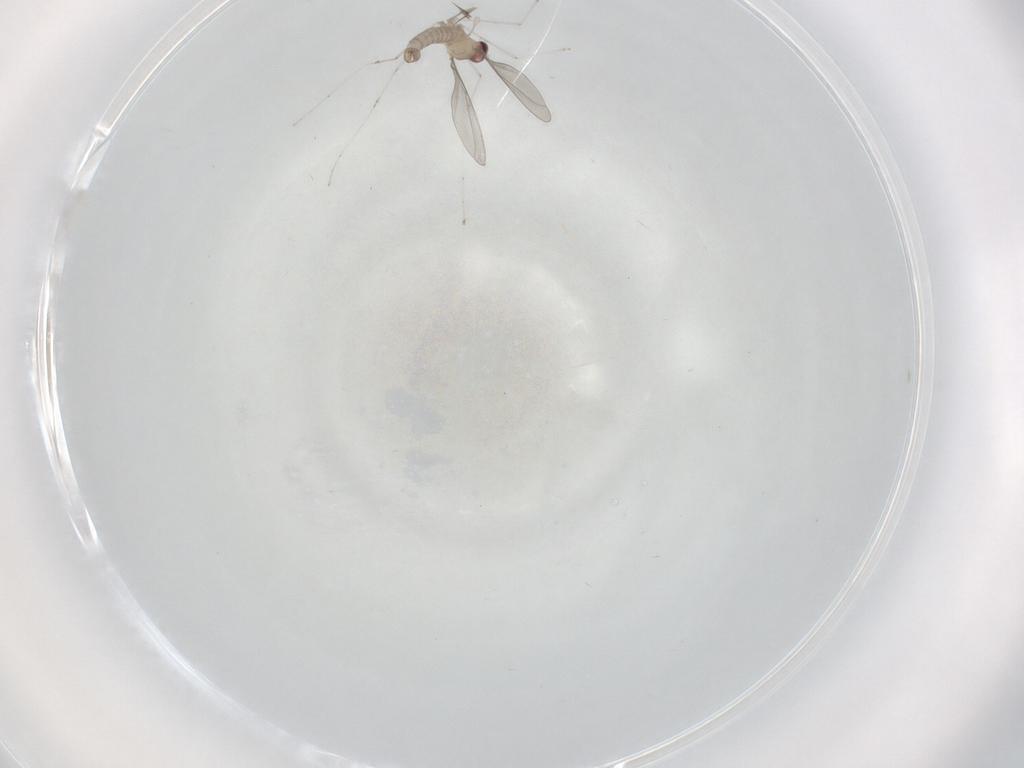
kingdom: Animalia
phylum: Arthropoda
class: Insecta
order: Diptera
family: Cecidomyiidae
